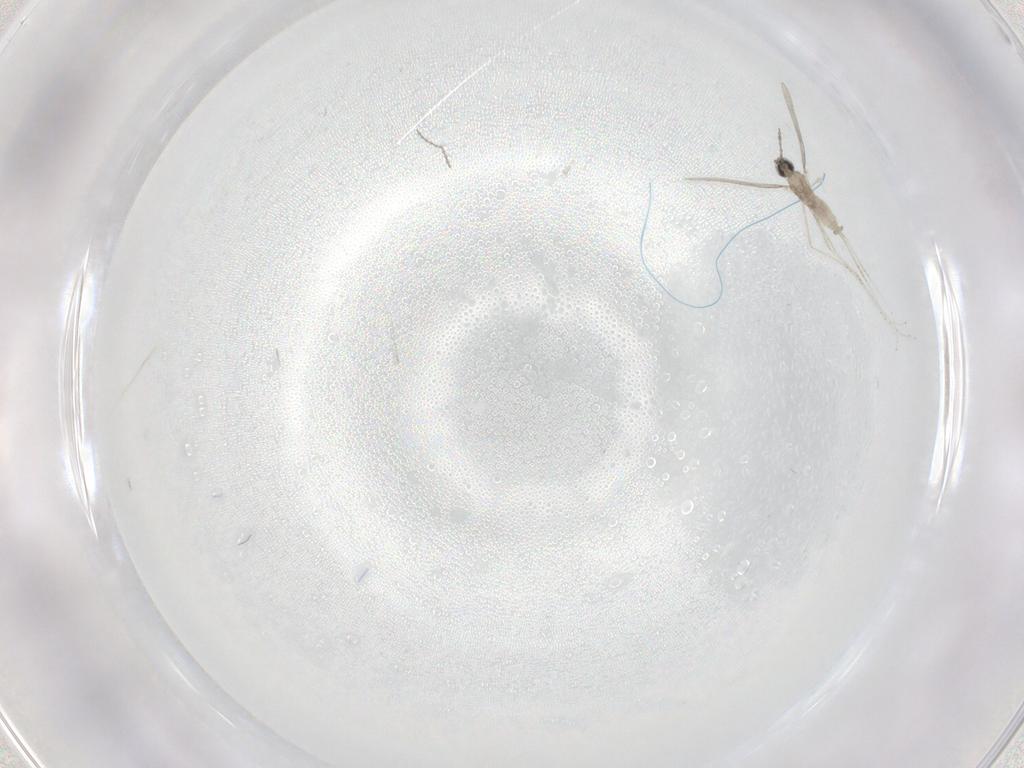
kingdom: Animalia
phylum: Arthropoda
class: Insecta
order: Diptera
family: Cecidomyiidae
